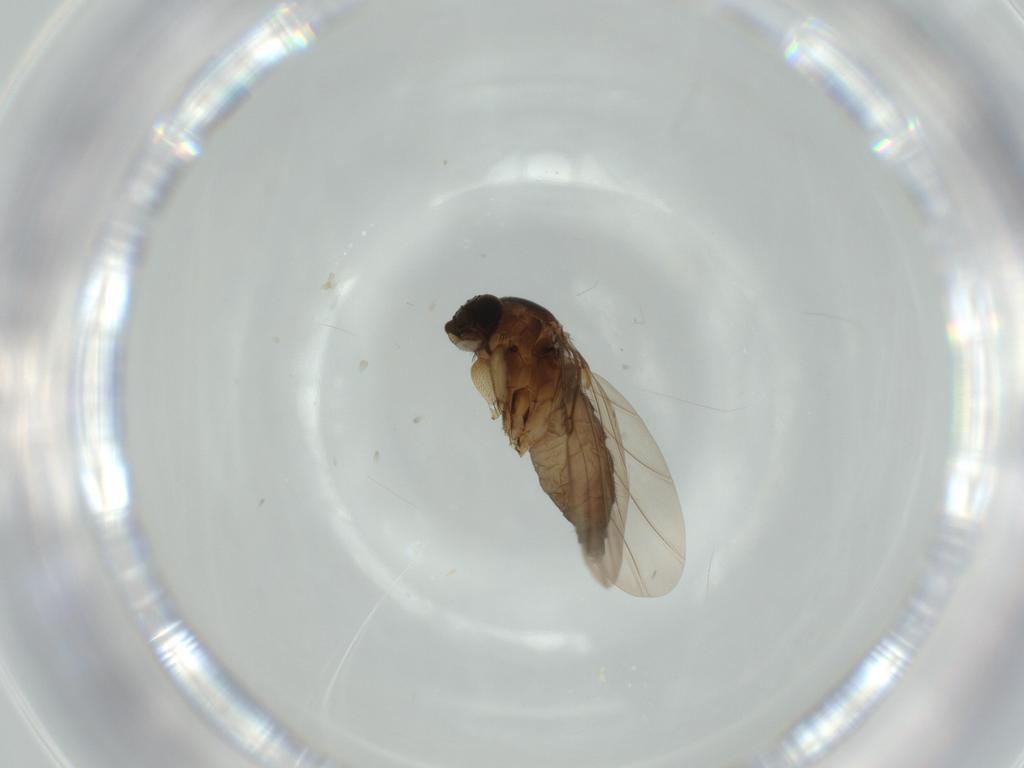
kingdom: Animalia
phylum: Arthropoda
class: Insecta
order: Diptera
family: Phoridae
